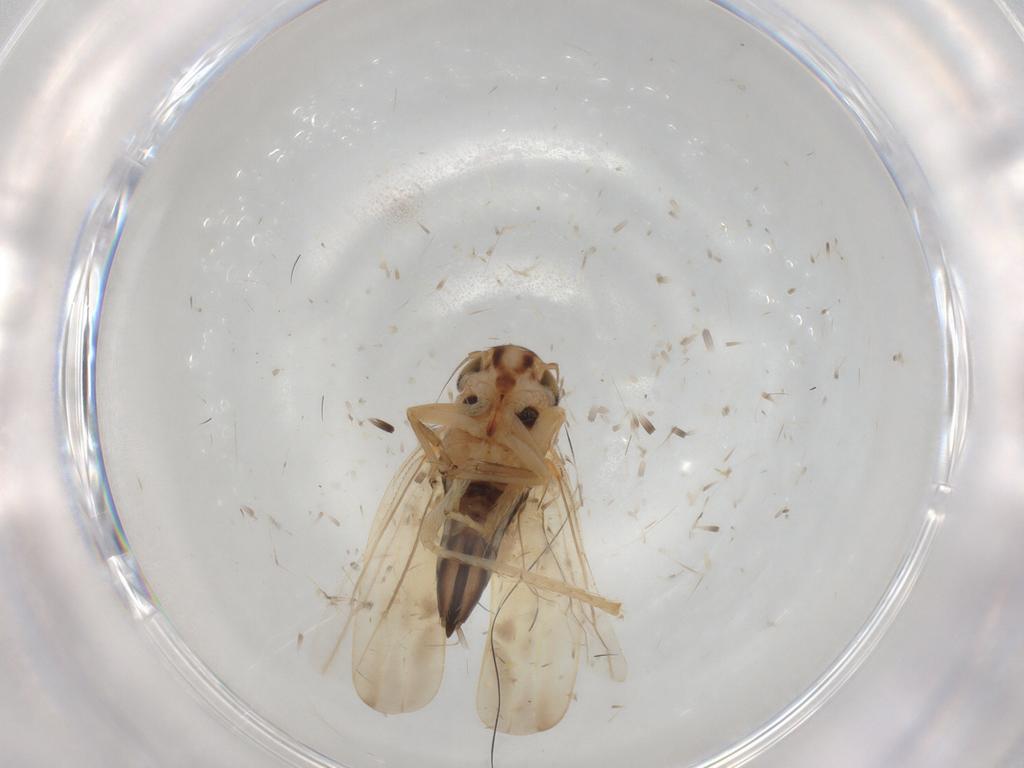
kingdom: Animalia
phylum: Arthropoda
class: Insecta
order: Hemiptera
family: Cicadellidae
